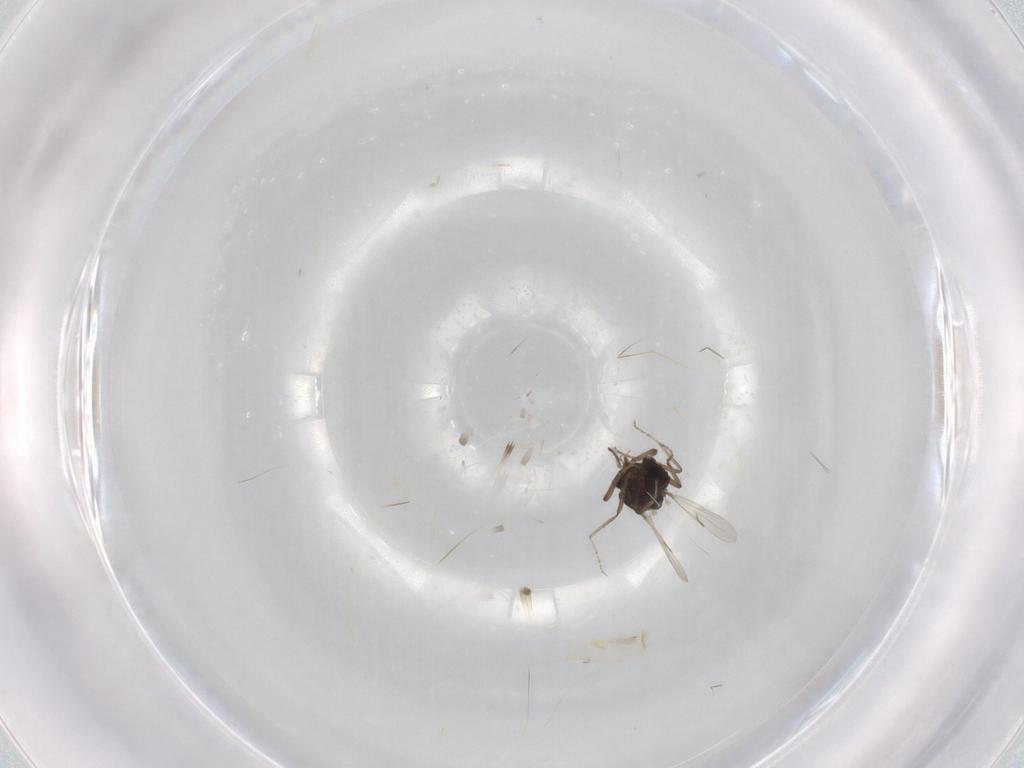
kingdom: Animalia
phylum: Arthropoda
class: Insecta
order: Diptera
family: Ceratopogonidae
